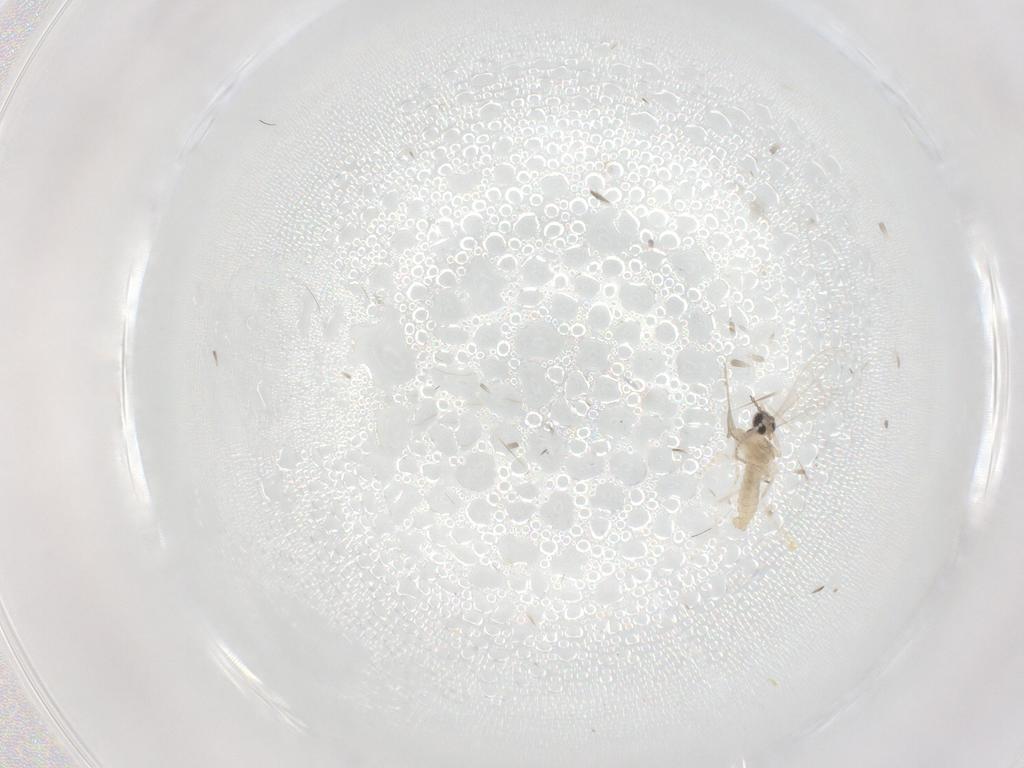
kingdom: Animalia
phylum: Arthropoda
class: Insecta
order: Diptera
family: Cecidomyiidae
